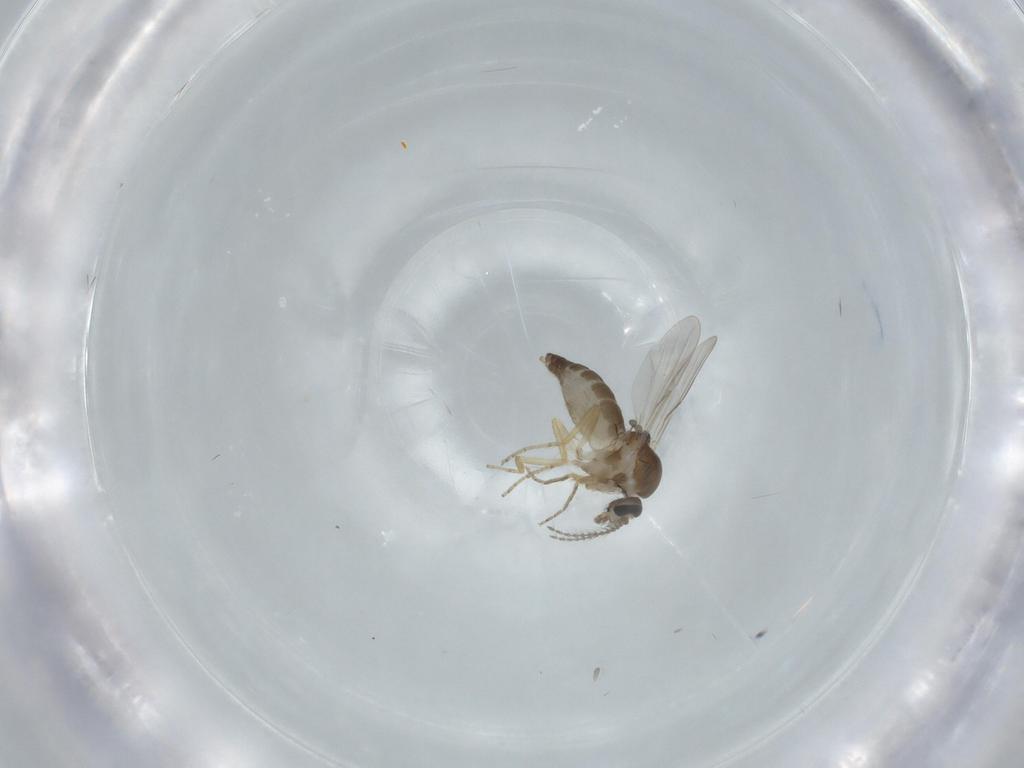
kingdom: Animalia
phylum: Arthropoda
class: Insecta
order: Diptera
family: Ceratopogonidae
